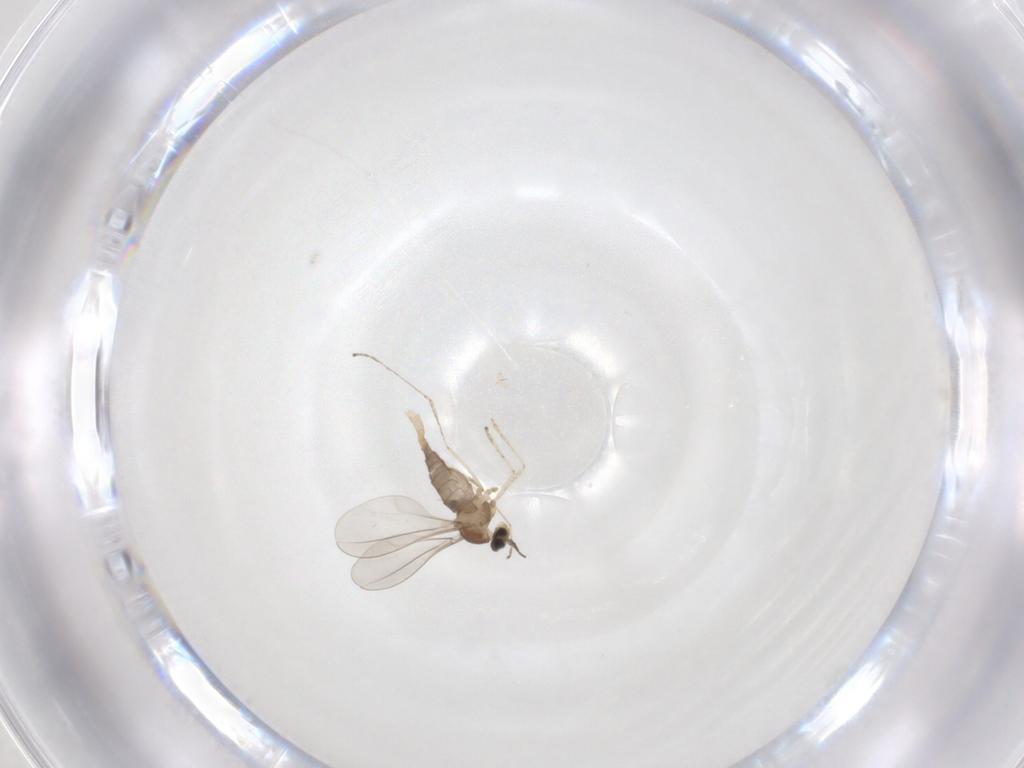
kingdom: Animalia
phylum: Arthropoda
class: Insecta
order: Diptera
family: Cecidomyiidae
